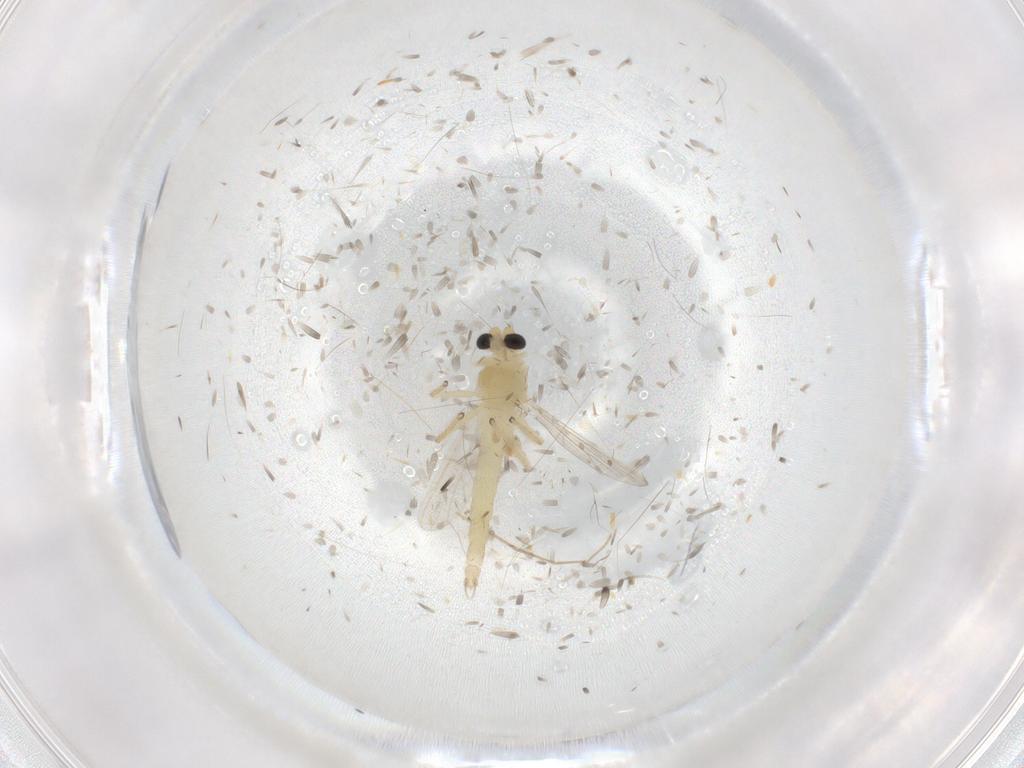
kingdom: Animalia
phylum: Arthropoda
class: Insecta
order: Diptera
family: Chironomidae
